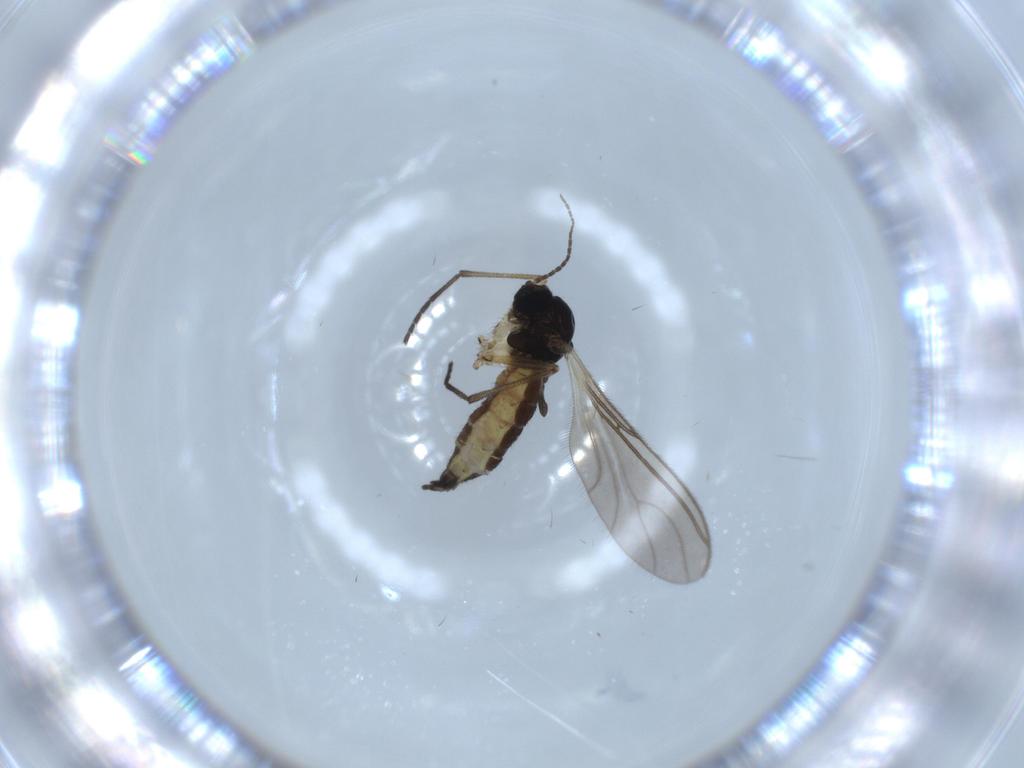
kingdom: Animalia
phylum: Arthropoda
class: Insecta
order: Diptera
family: Sciaridae
